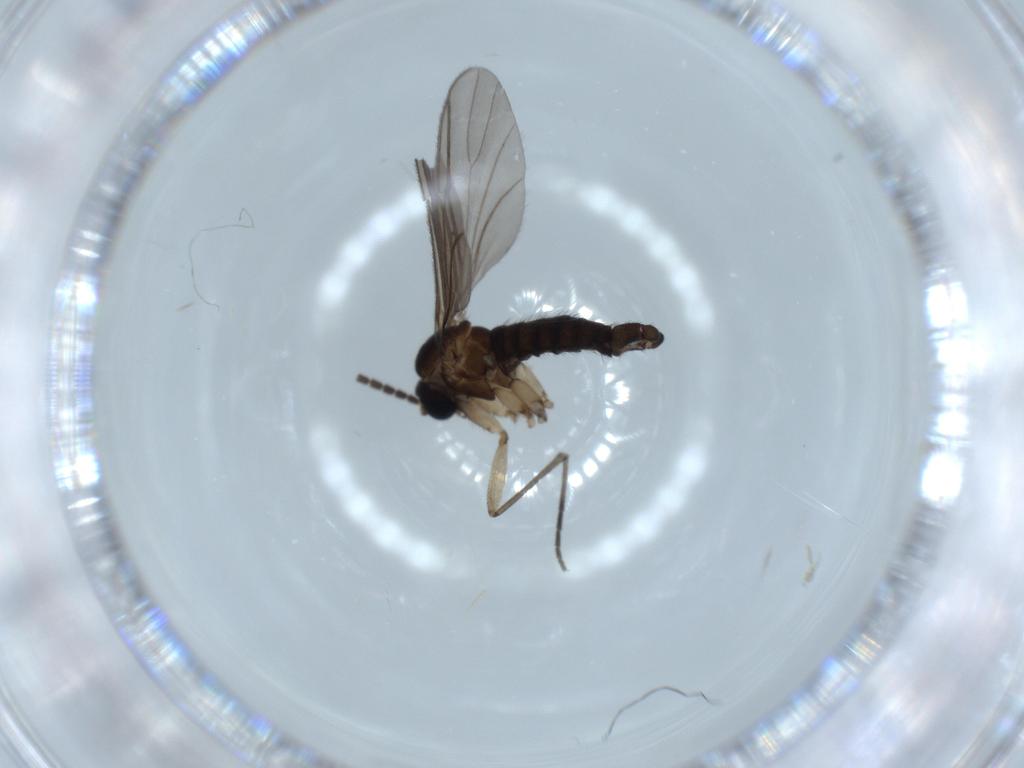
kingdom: Animalia
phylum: Arthropoda
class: Insecta
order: Diptera
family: Sciaridae
